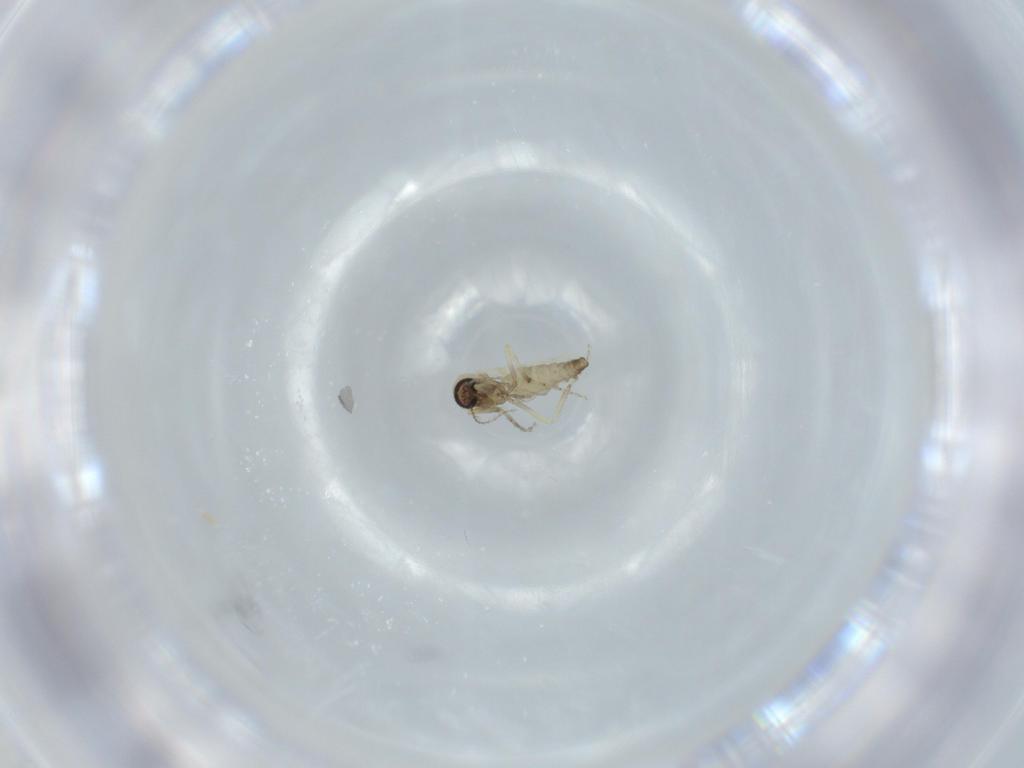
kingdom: Animalia
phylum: Arthropoda
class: Insecta
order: Diptera
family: Ceratopogonidae
